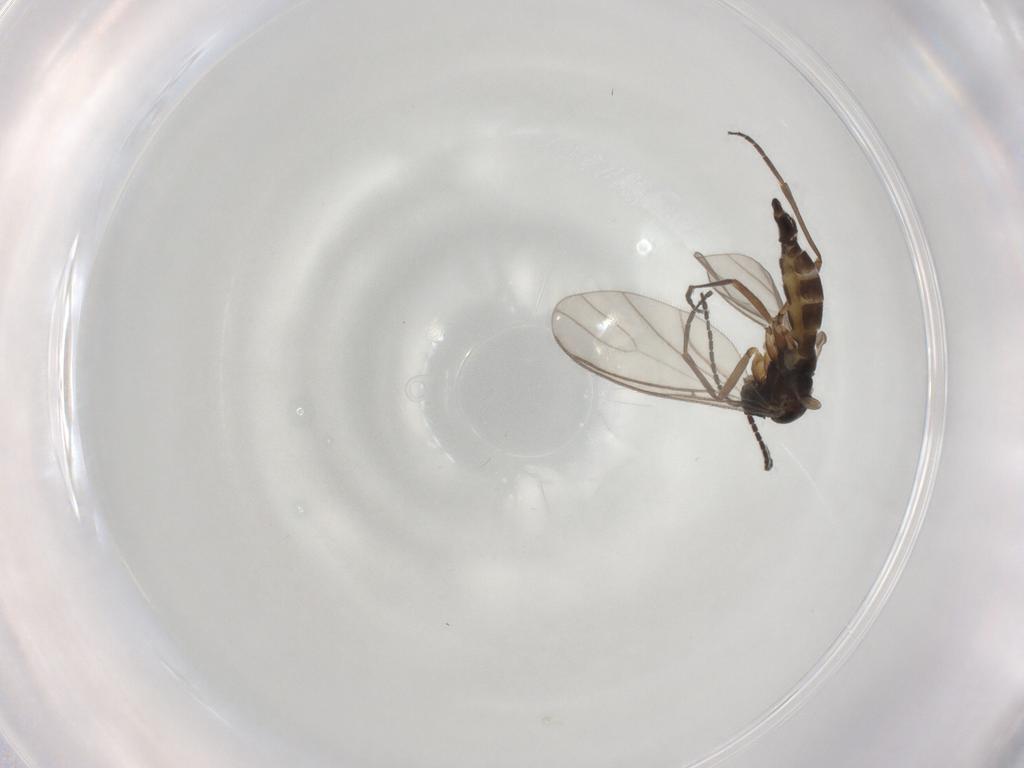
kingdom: Animalia
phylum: Arthropoda
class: Insecta
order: Diptera
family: Sciaridae
